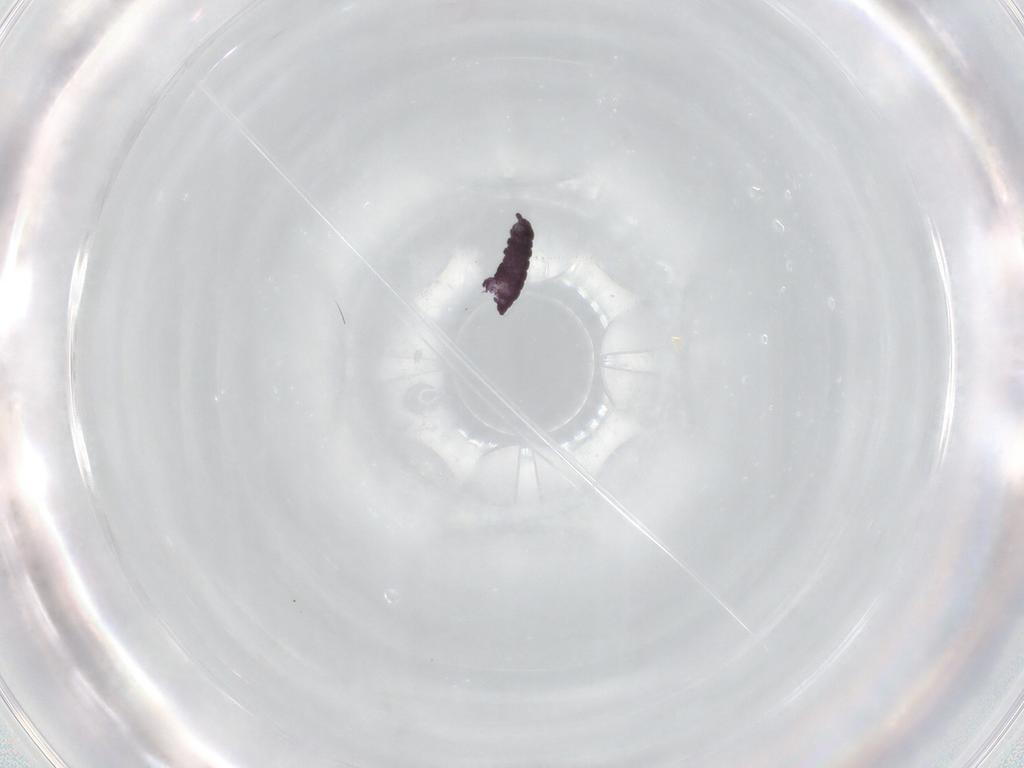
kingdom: Animalia
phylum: Arthropoda
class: Collembola
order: Poduromorpha
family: Hypogastruridae
